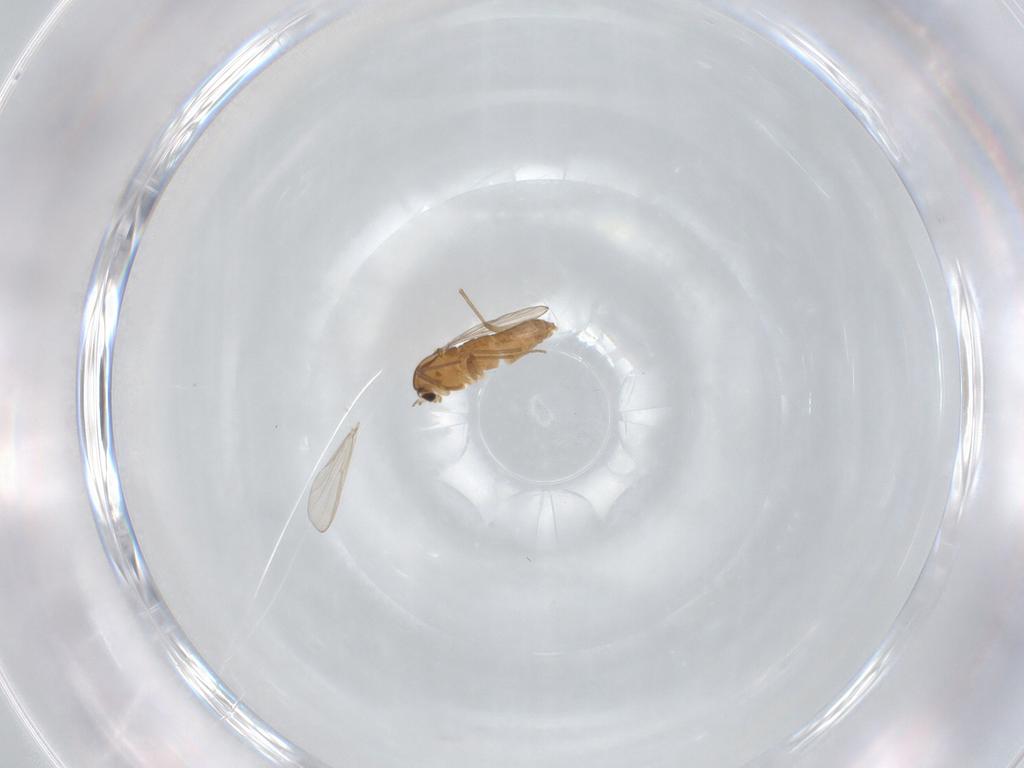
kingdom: Animalia
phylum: Arthropoda
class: Insecta
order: Diptera
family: Chironomidae
